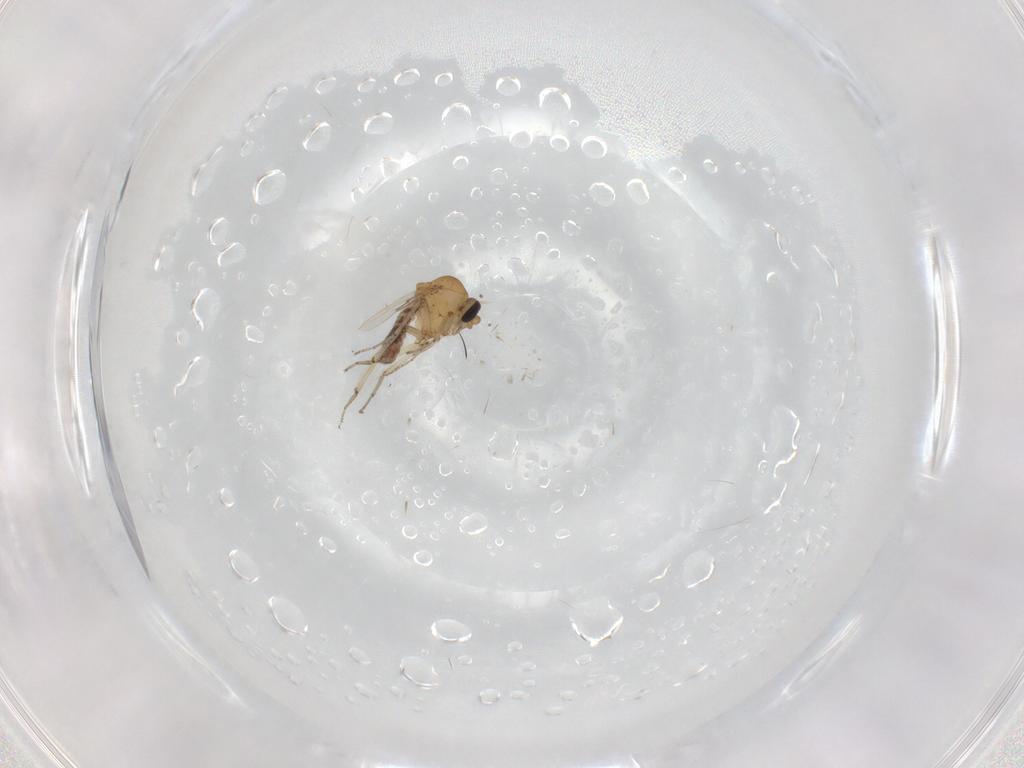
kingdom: Animalia
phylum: Arthropoda
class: Insecta
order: Diptera
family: Ceratopogonidae
